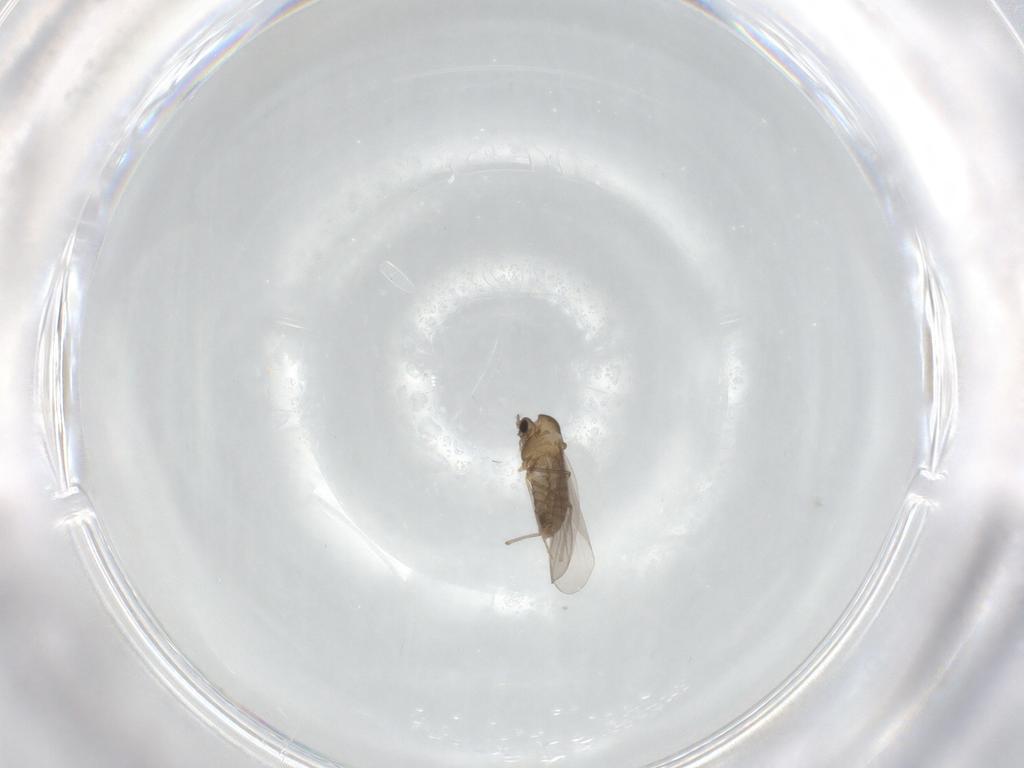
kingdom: Animalia
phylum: Arthropoda
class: Insecta
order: Diptera
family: Chironomidae
